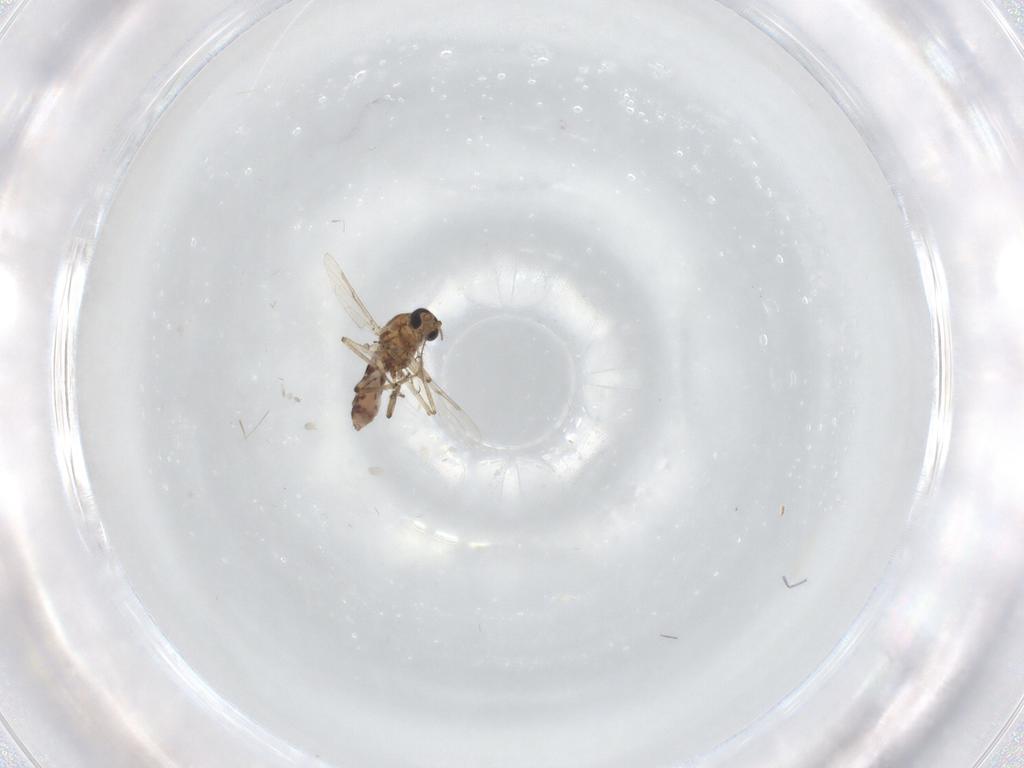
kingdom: Animalia
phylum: Arthropoda
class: Insecta
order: Diptera
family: Ceratopogonidae
